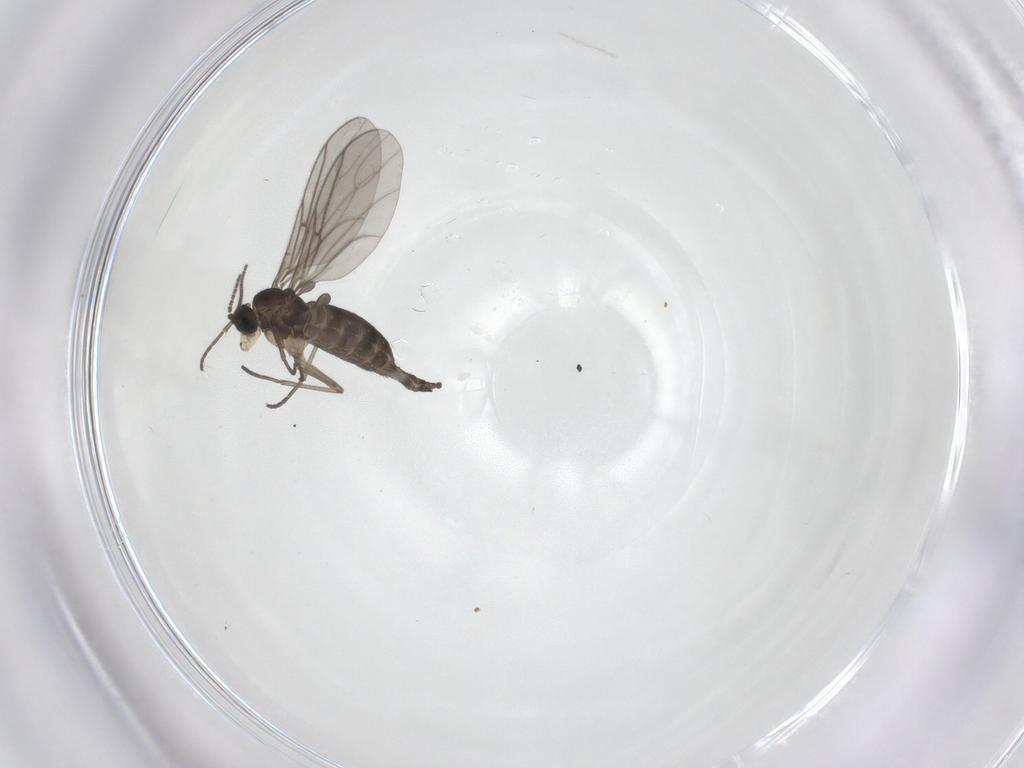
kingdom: Animalia
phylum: Arthropoda
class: Insecta
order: Diptera
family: Sciaridae
